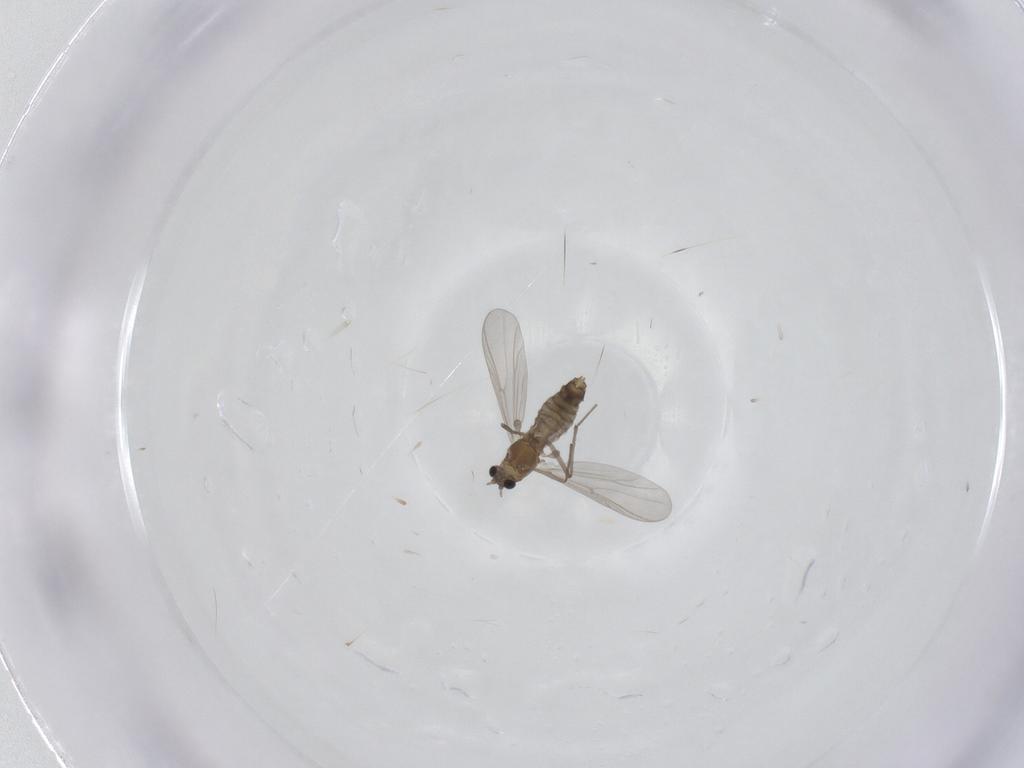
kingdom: Animalia
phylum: Arthropoda
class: Insecta
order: Diptera
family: Chironomidae
